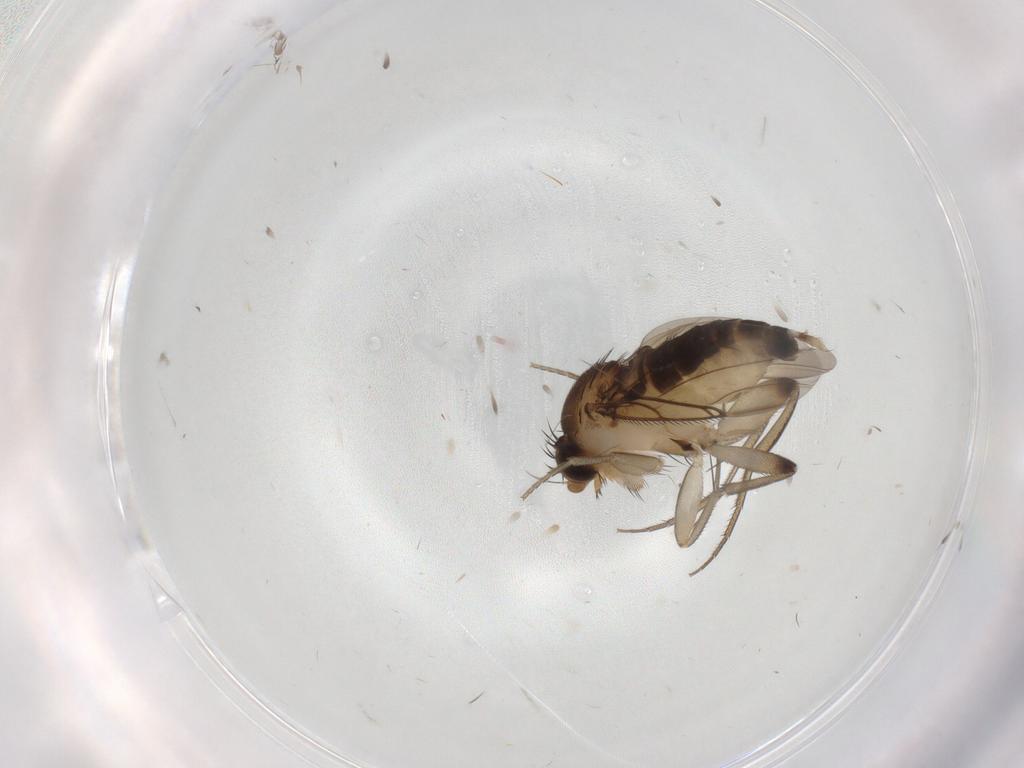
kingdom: Animalia
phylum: Arthropoda
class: Insecta
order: Diptera
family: Phoridae
